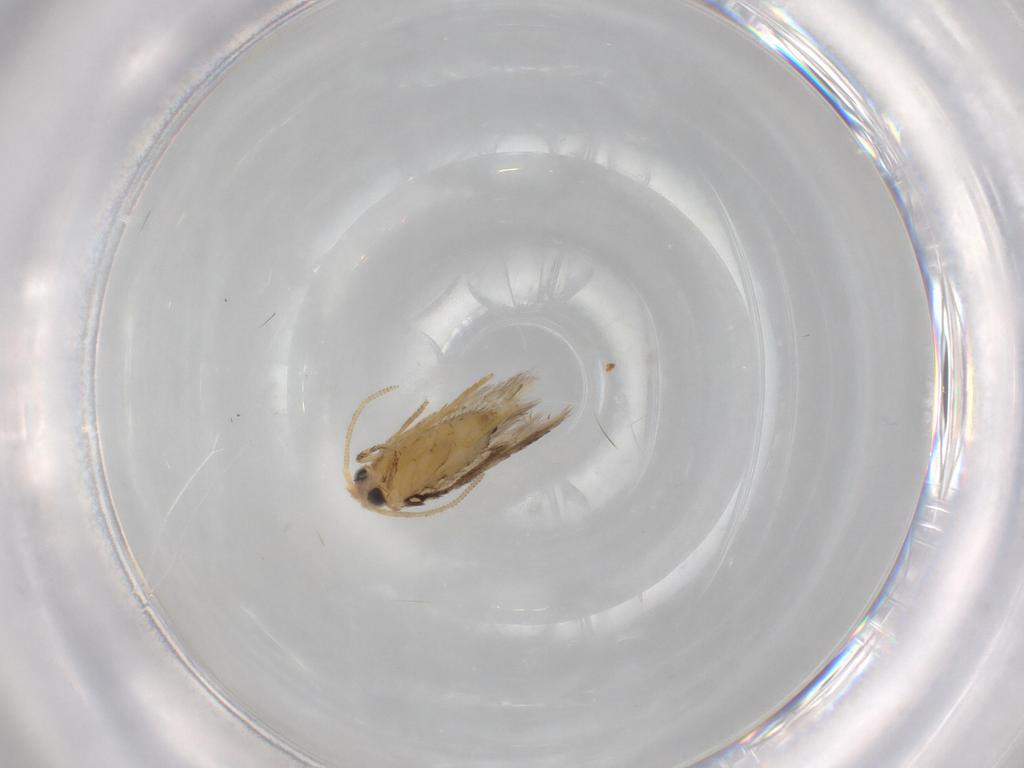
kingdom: Animalia
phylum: Arthropoda
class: Insecta
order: Lepidoptera
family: Nepticulidae
